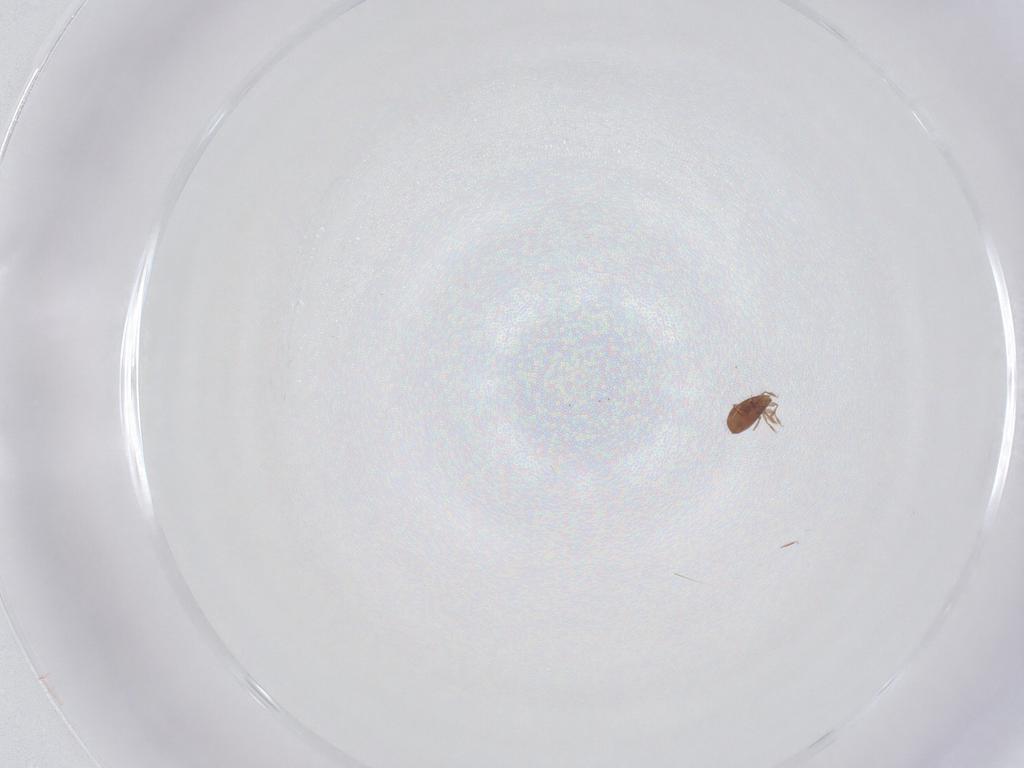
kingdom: Animalia
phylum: Arthropoda
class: Arachnida
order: Sarcoptiformes
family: Oribatulidae
